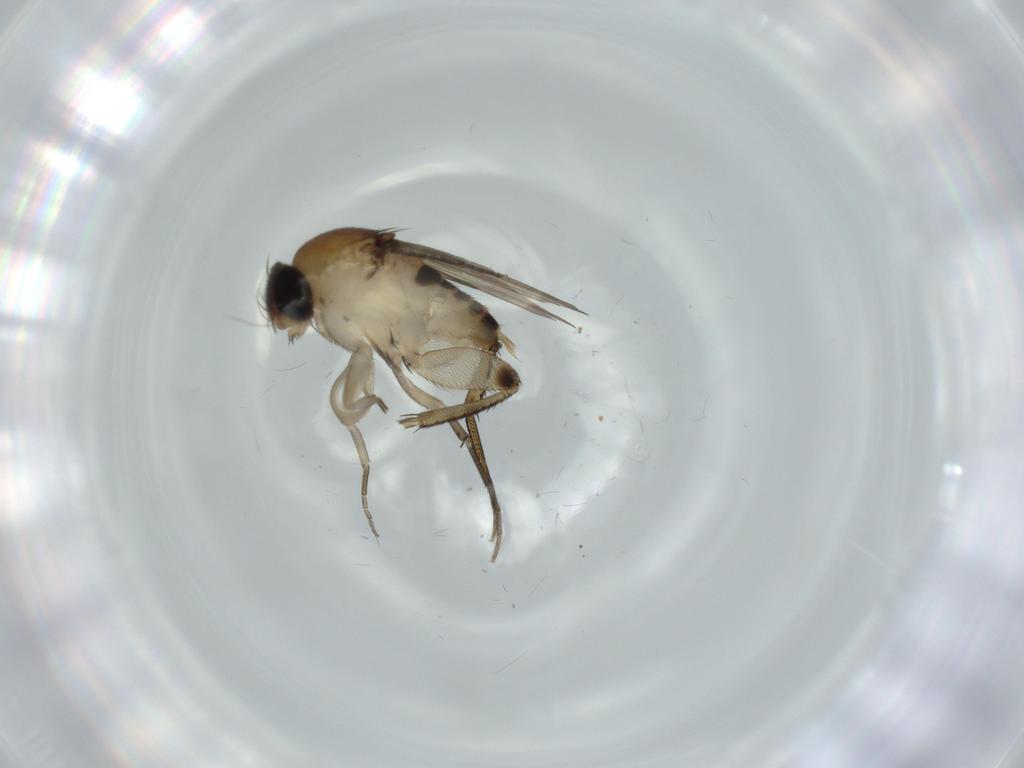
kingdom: Animalia
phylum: Arthropoda
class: Insecta
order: Diptera
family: Phoridae
